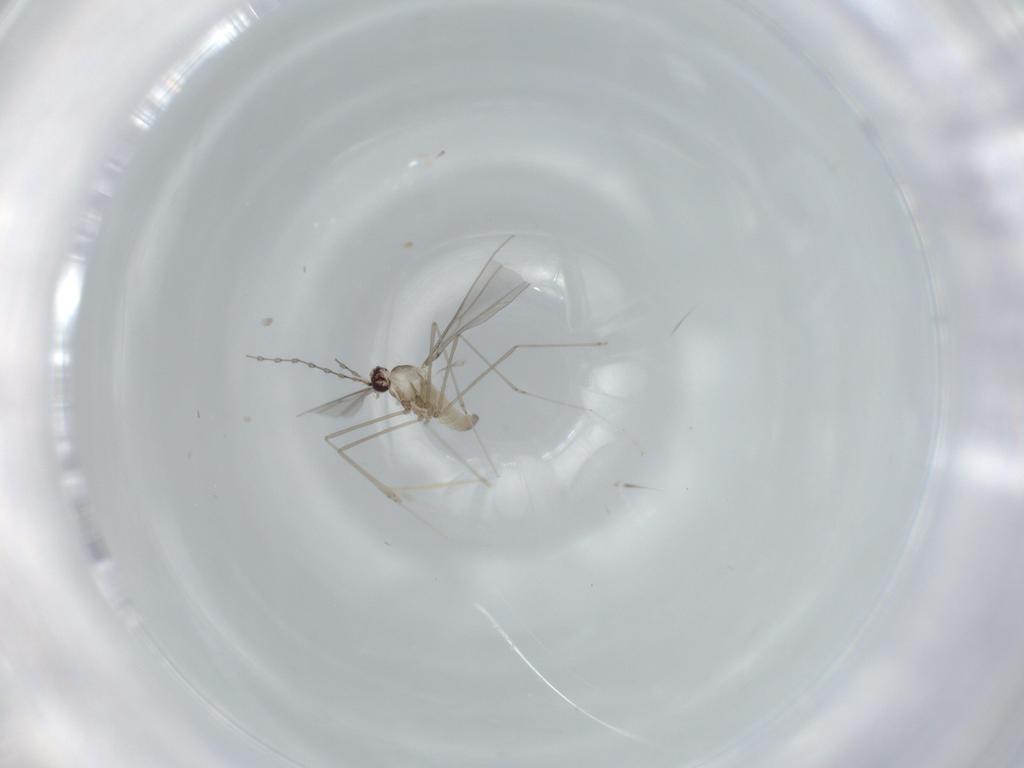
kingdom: Animalia
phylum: Arthropoda
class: Insecta
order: Diptera
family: Cecidomyiidae
